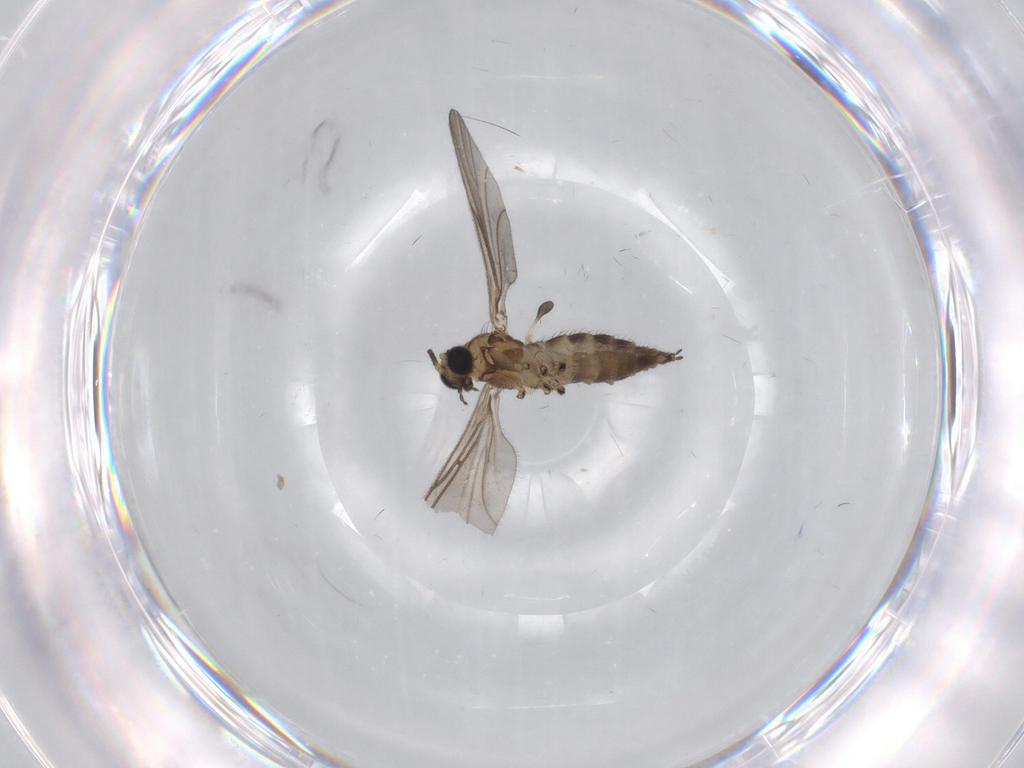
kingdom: Animalia
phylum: Arthropoda
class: Insecta
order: Diptera
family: Sciaridae
